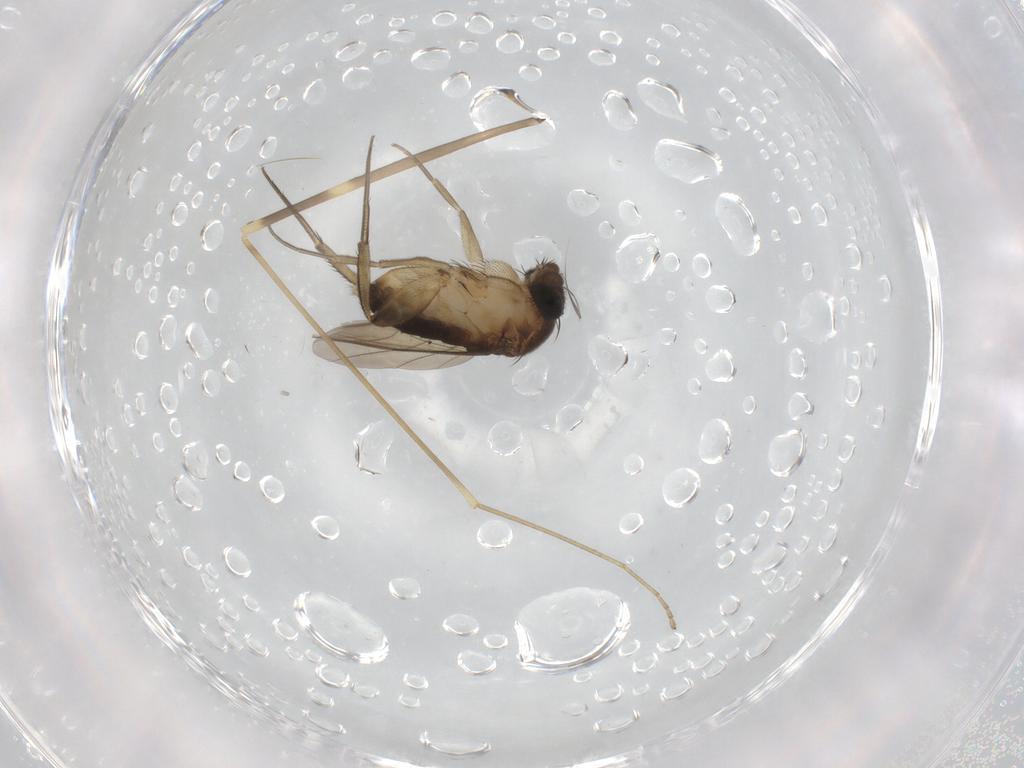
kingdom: Animalia
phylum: Arthropoda
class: Insecta
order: Diptera
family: Phoridae
